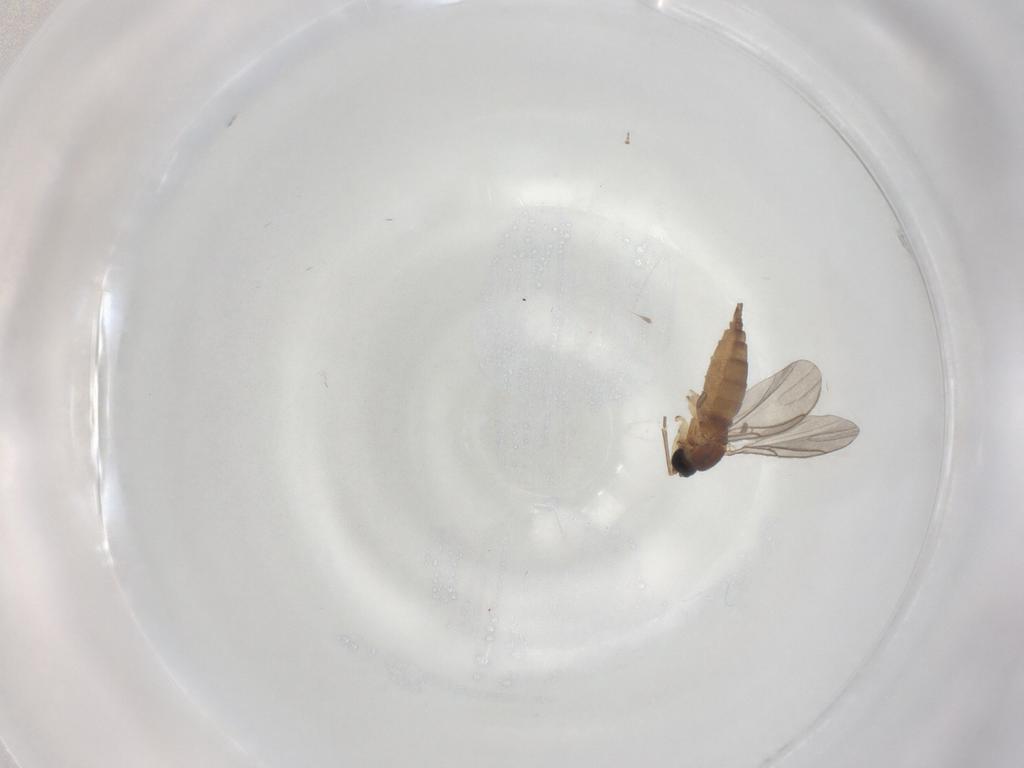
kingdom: Animalia
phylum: Arthropoda
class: Insecta
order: Diptera
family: Sciaridae
